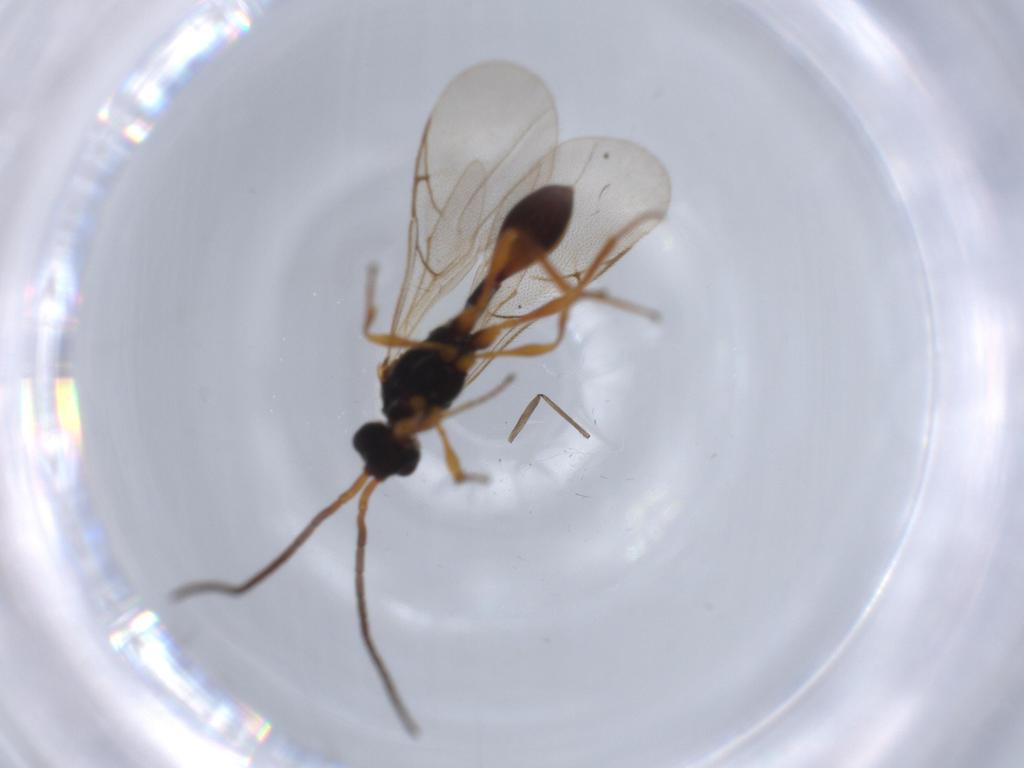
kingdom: Animalia
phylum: Arthropoda
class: Insecta
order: Hymenoptera
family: Diapriidae
